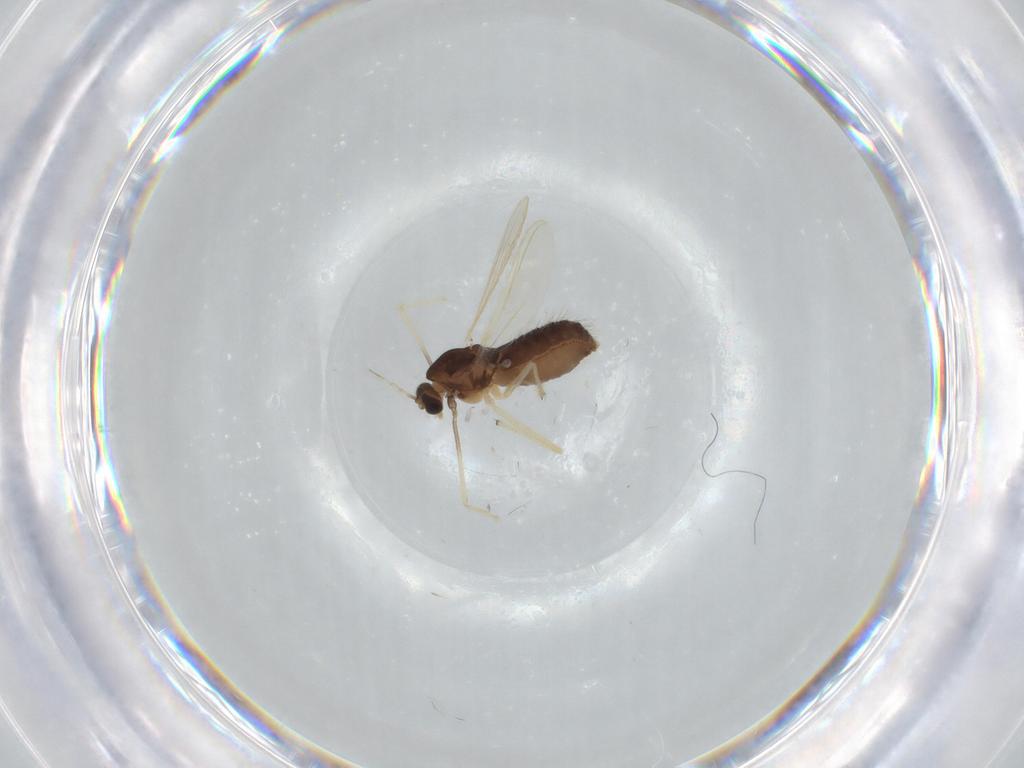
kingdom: Animalia
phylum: Arthropoda
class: Insecta
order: Diptera
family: Chironomidae
